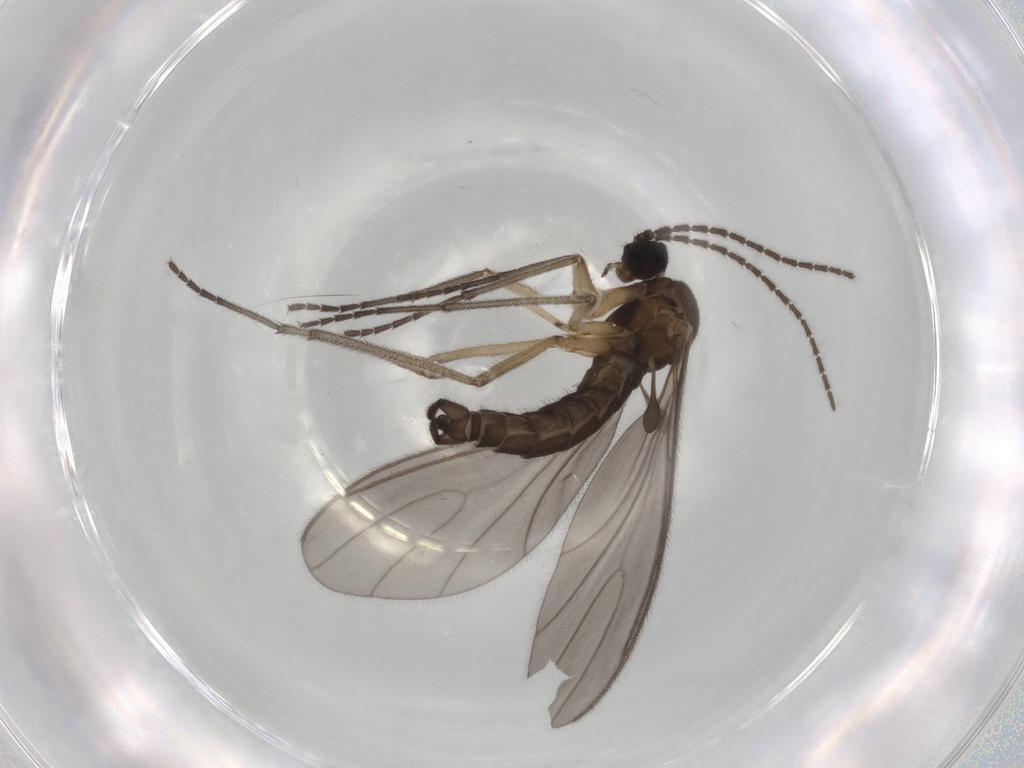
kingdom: Animalia
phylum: Arthropoda
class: Insecta
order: Diptera
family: Sciaridae
